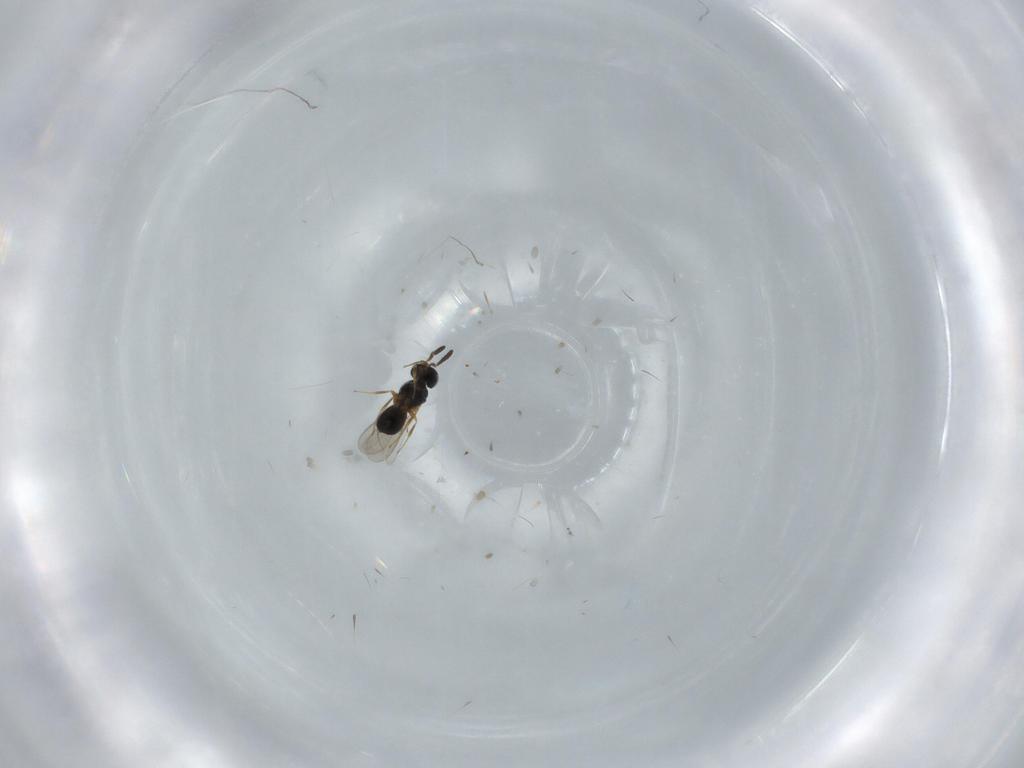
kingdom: Animalia
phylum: Arthropoda
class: Insecta
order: Hymenoptera
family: Scelionidae
